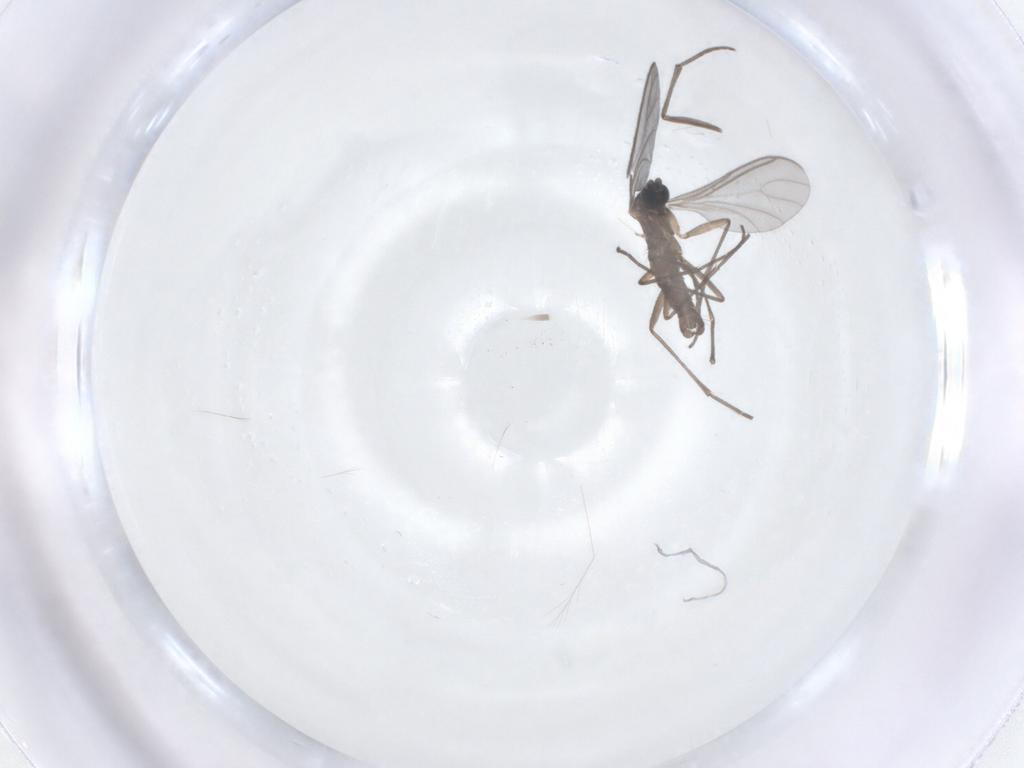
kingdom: Animalia
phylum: Arthropoda
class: Insecta
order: Diptera
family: Sciaridae
